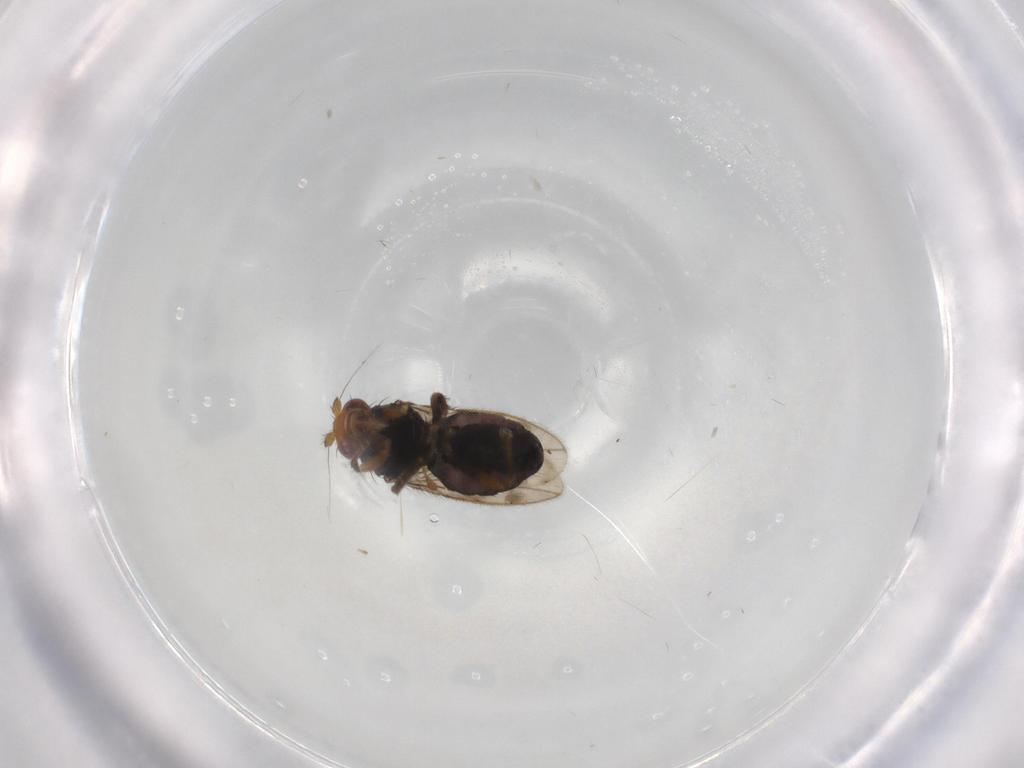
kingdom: Animalia
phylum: Arthropoda
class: Insecta
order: Diptera
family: Sphaeroceridae
